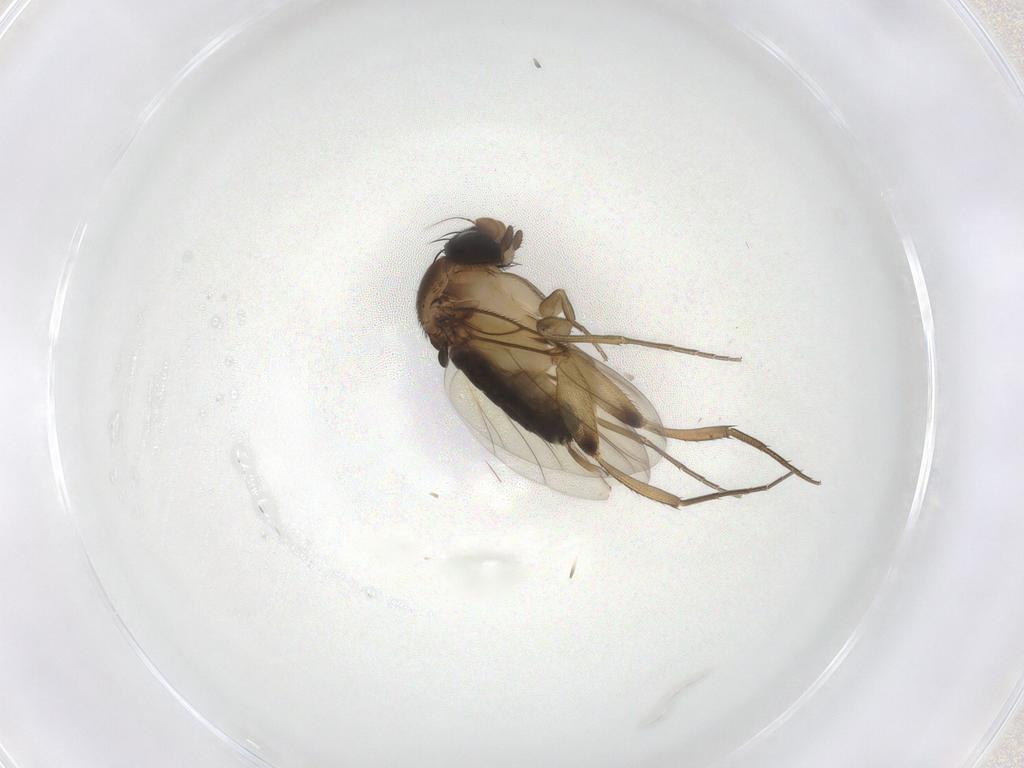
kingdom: Animalia
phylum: Arthropoda
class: Insecta
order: Diptera
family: Phoridae
